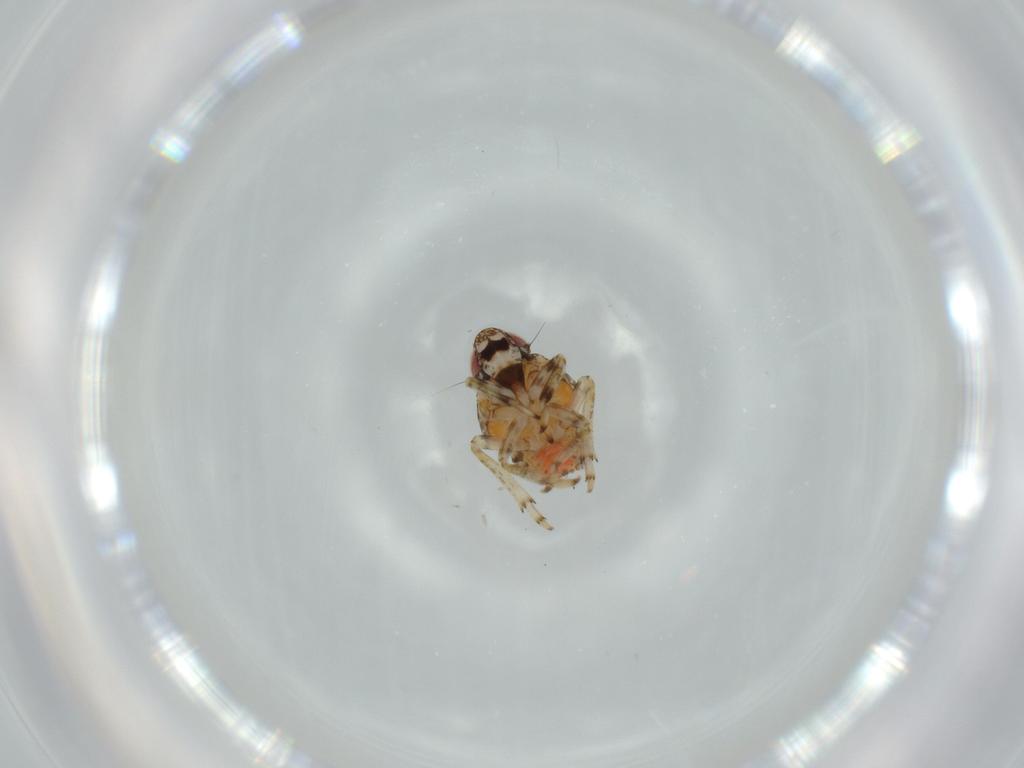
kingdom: Animalia
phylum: Arthropoda
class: Insecta
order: Hemiptera
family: Issidae
